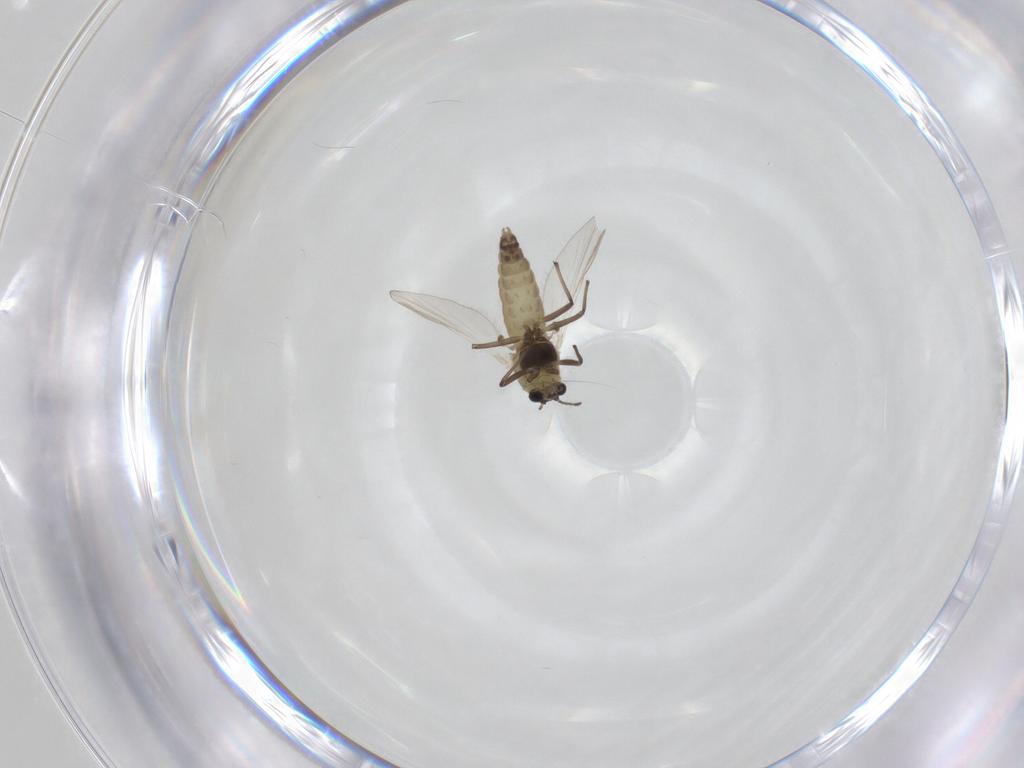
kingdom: Animalia
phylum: Arthropoda
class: Insecta
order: Diptera
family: Chironomidae
